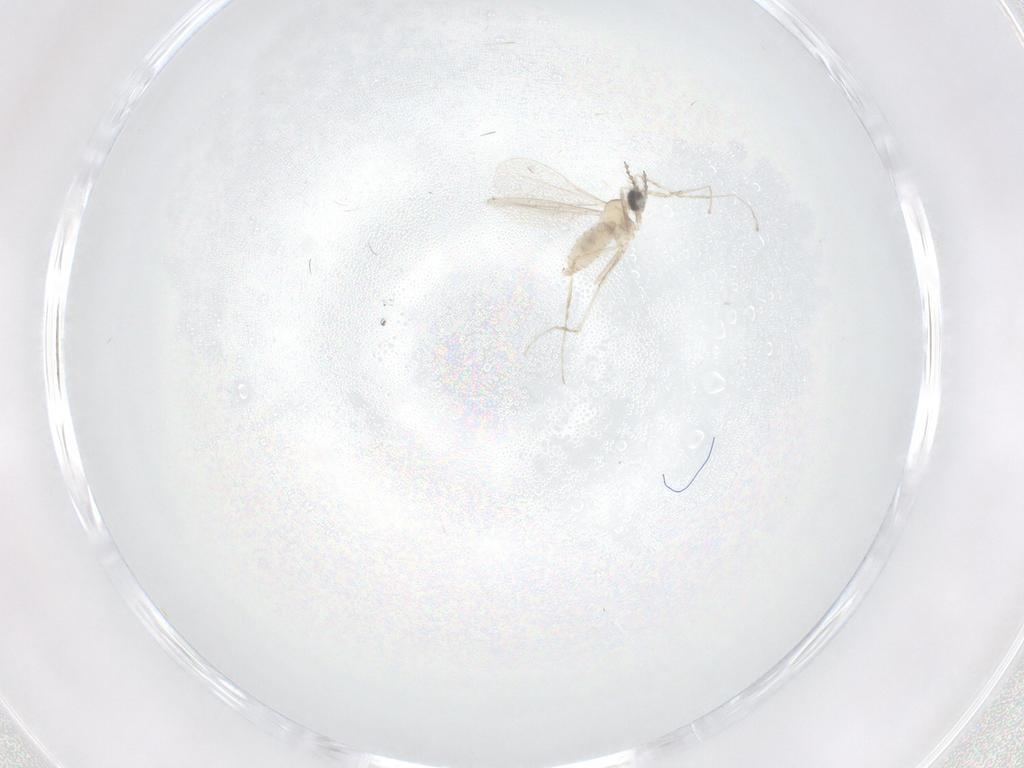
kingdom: Animalia
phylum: Arthropoda
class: Insecta
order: Diptera
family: Cecidomyiidae
